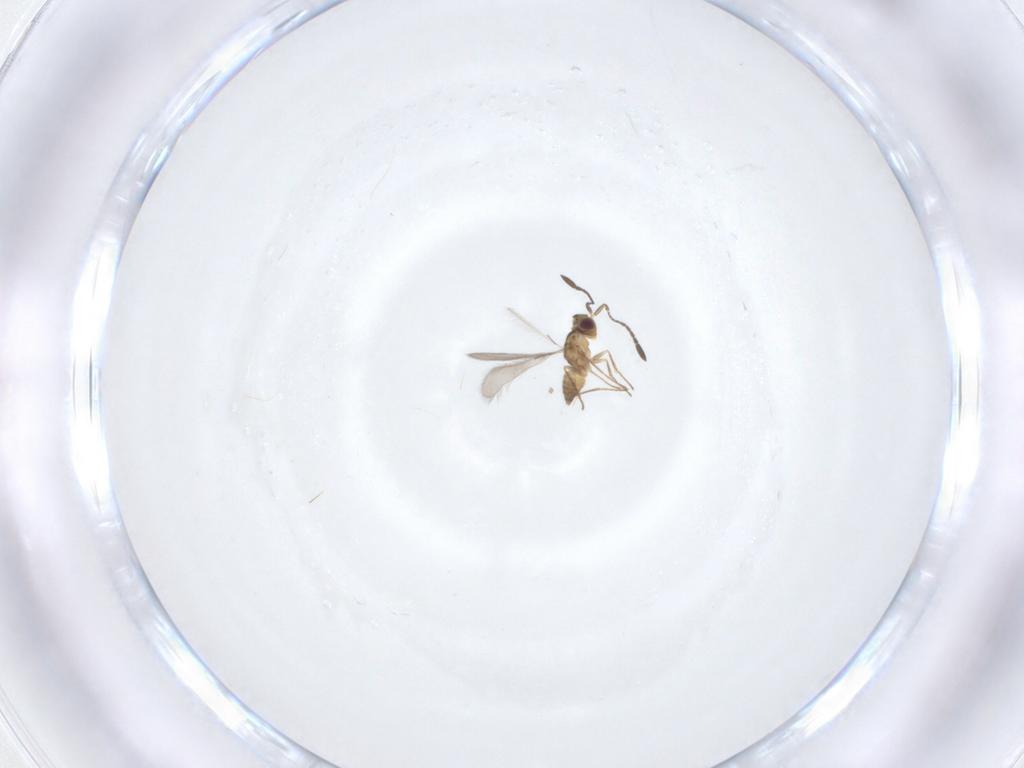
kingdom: Animalia
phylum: Arthropoda
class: Insecta
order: Hymenoptera
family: Mymaridae
